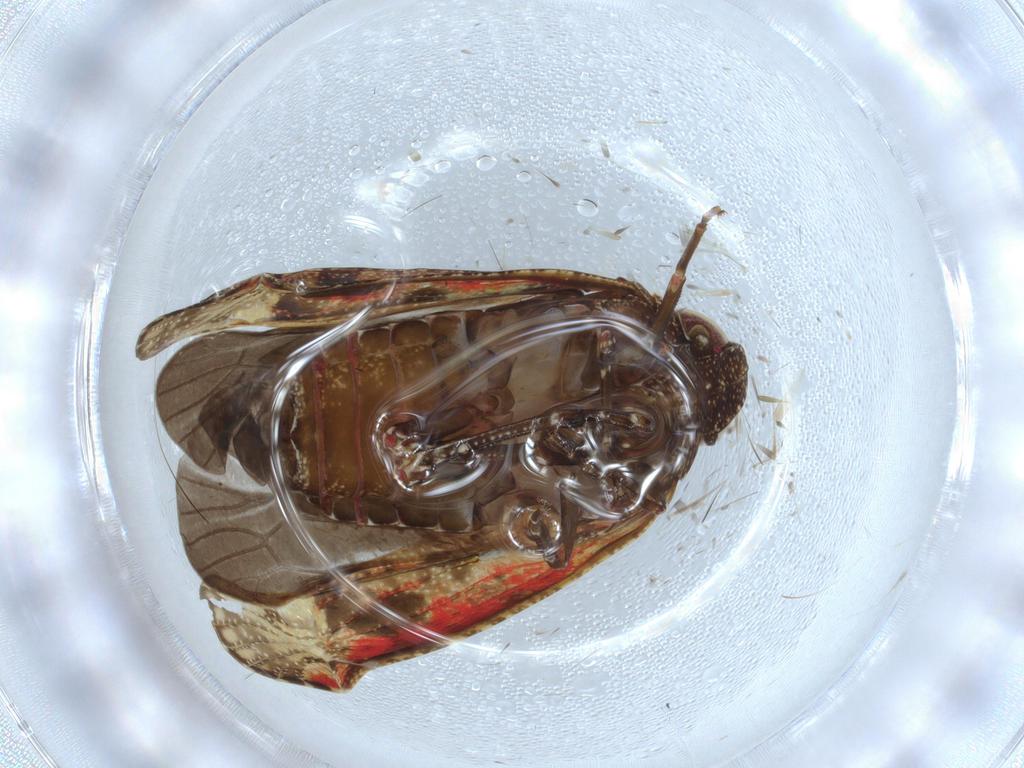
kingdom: Animalia
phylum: Arthropoda
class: Insecta
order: Hemiptera
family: Achilidae
